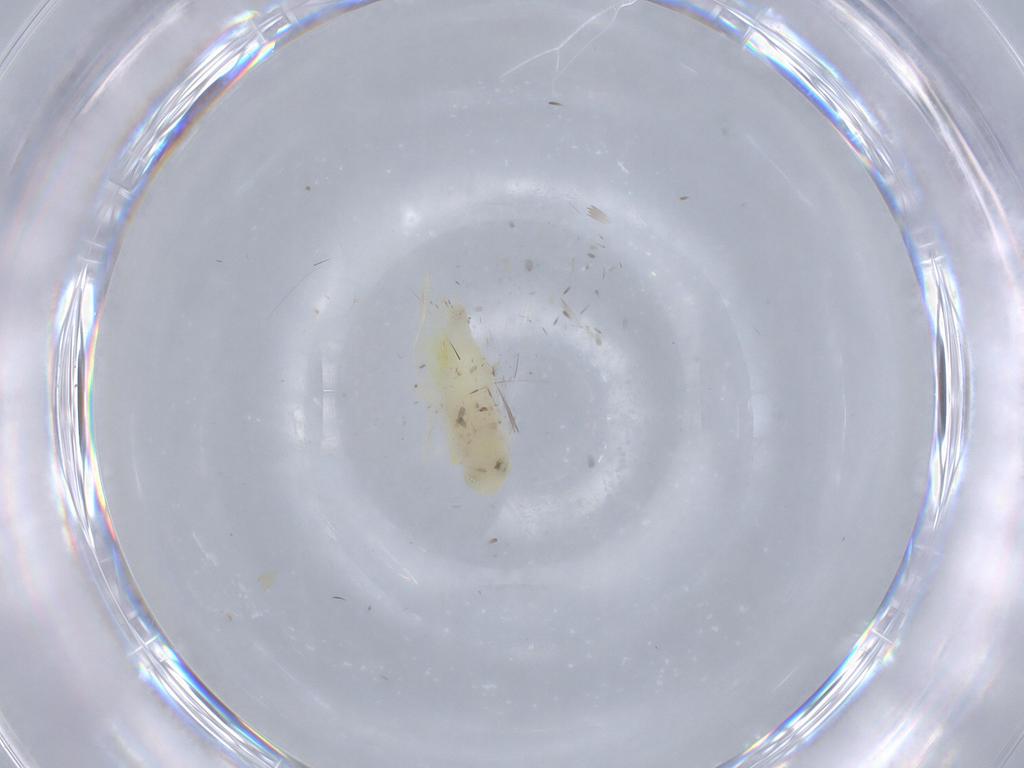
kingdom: Animalia
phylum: Arthropoda
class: Insecta
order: Hemiptera
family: Cicadellidae
